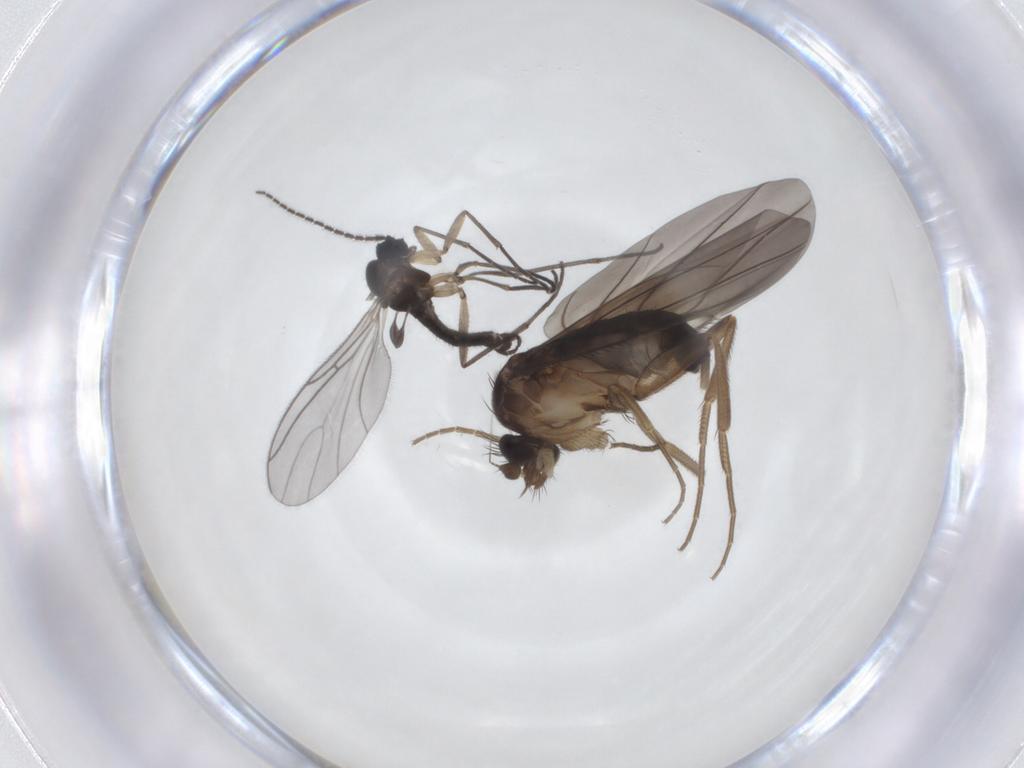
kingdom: Animalia
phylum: Arthropoda
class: Insecta
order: Diptera
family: Phoridae
